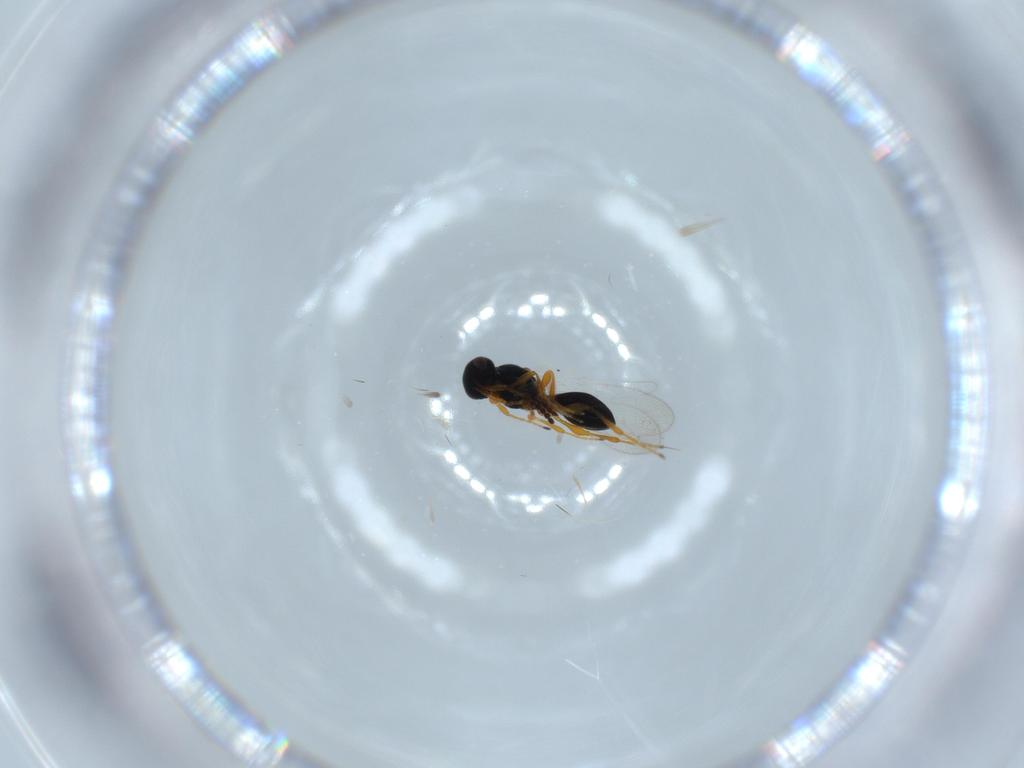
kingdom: Animalia
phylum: Arthropoda
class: Insecta
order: Hymenoptera
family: Platygastridae
